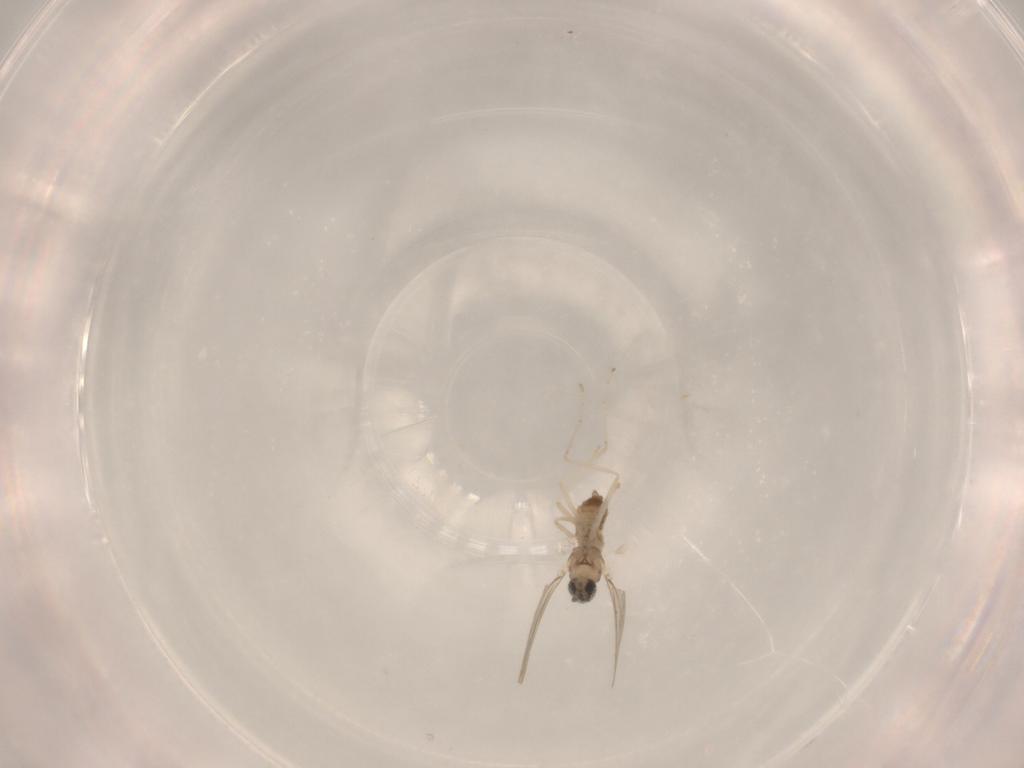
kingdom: Animalia
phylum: Arthropoda
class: Insecta
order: Diptera
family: Cecidomyiidae
